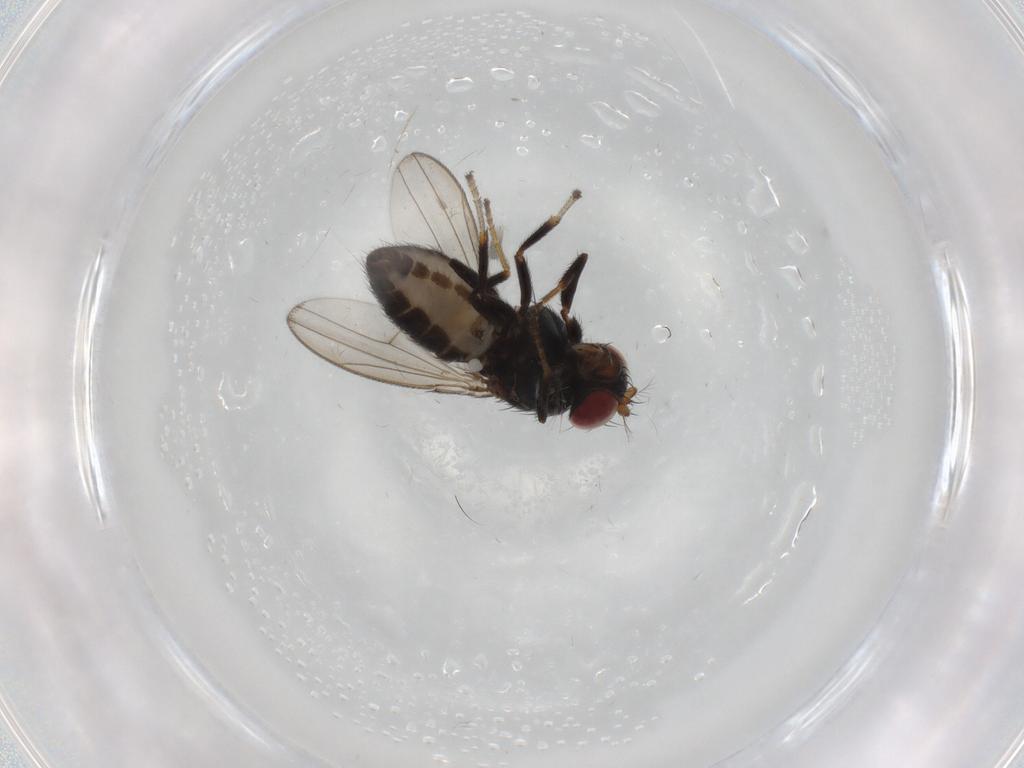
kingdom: Animalia
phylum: Arthropoda
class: Insecta
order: Diptera
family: Ephydridae
